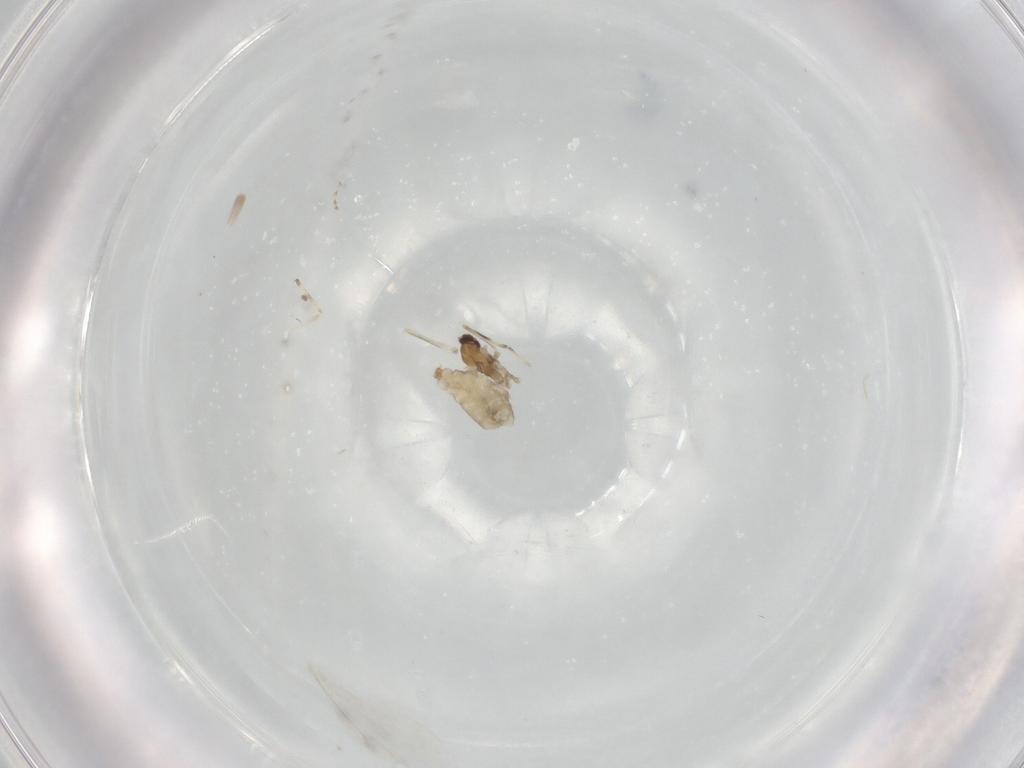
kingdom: Animalia
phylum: Arthropoda
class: Insecta
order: Diptera
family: Cecidomyiidae
